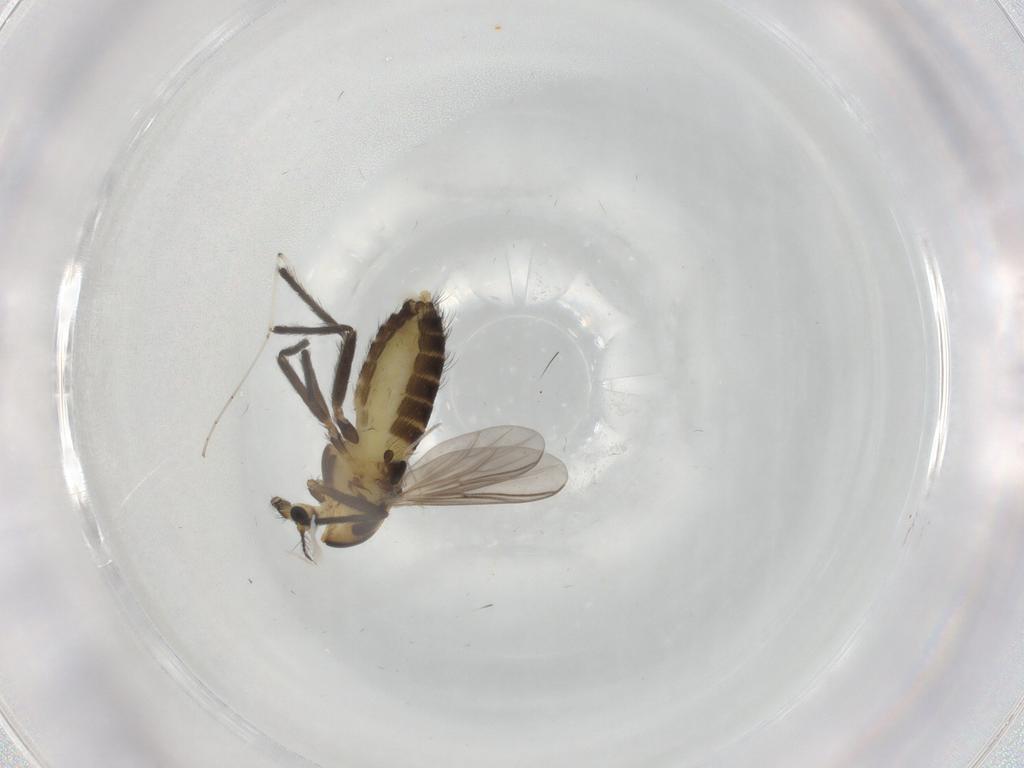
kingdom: Animalia
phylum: Arthropoda
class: Insecta
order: Diptera
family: Chironomidae
